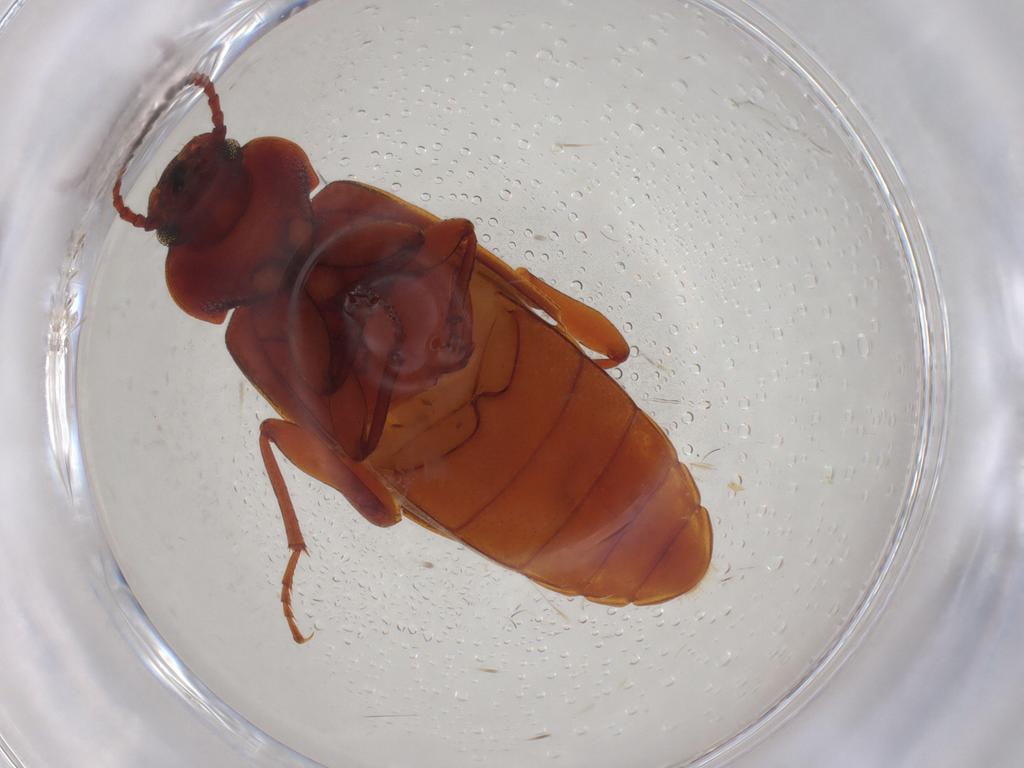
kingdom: Animalia
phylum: Arthropoda
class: Insecta
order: Coleoptera
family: Tenebrionidae
